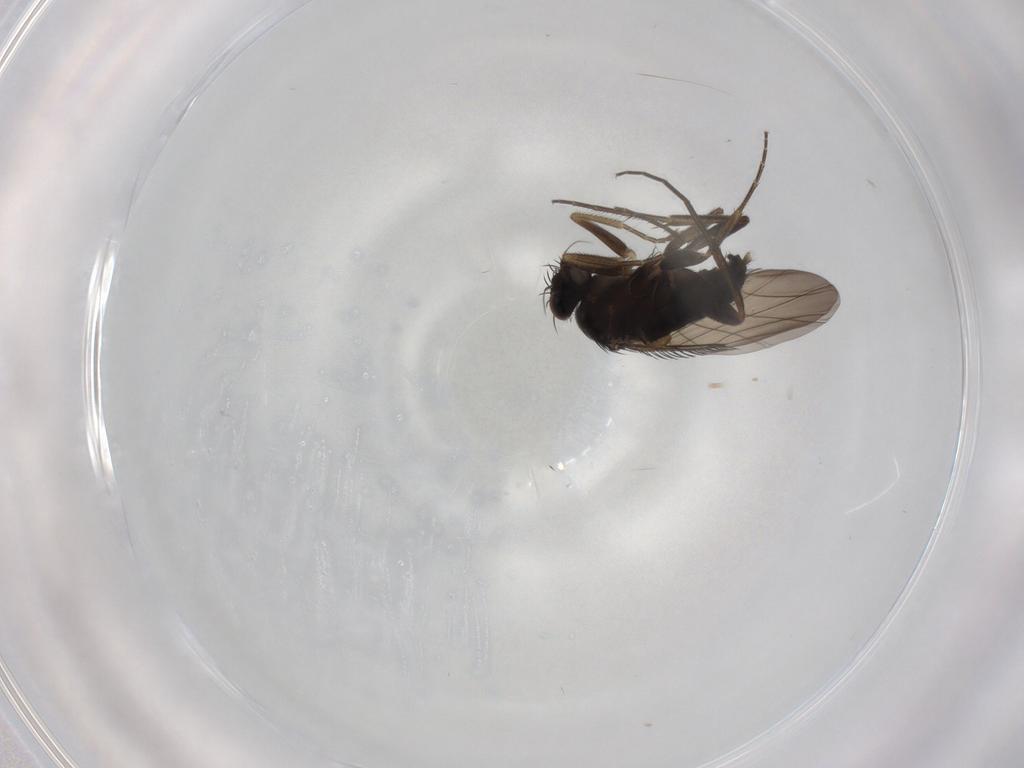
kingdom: Animalia
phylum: Arthropoda
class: Insecta
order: Diptera
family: Phoridae
